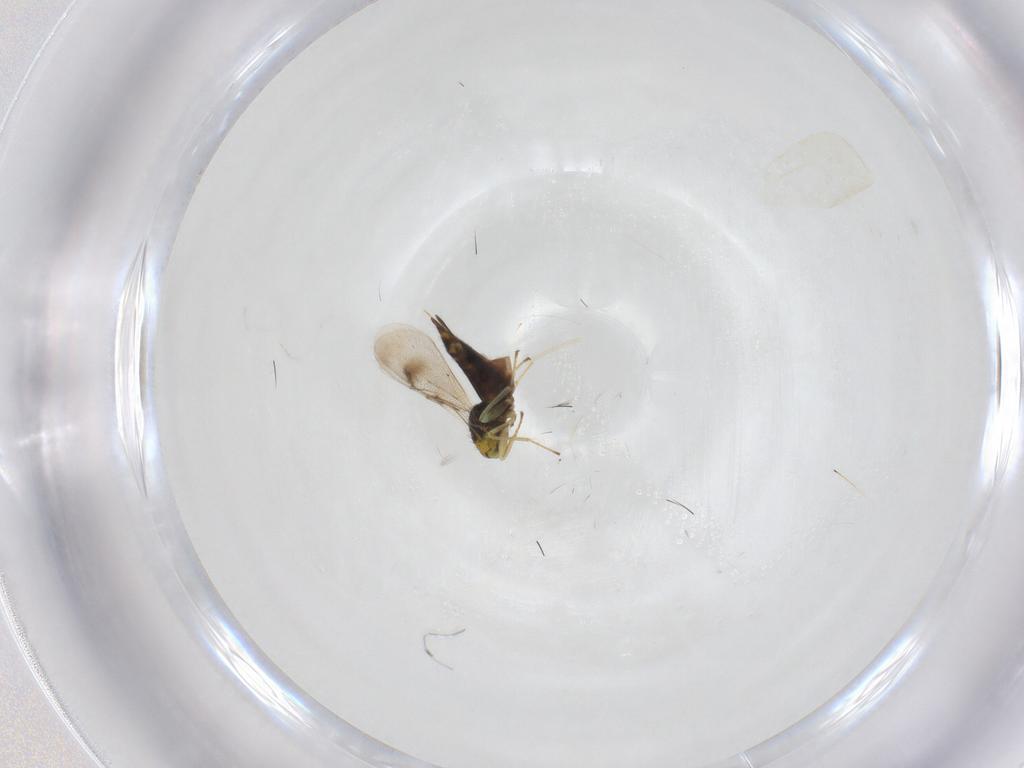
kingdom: Animalia
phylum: Arthropoda
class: Insecta
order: Hymenoptera
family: Eulophidae
